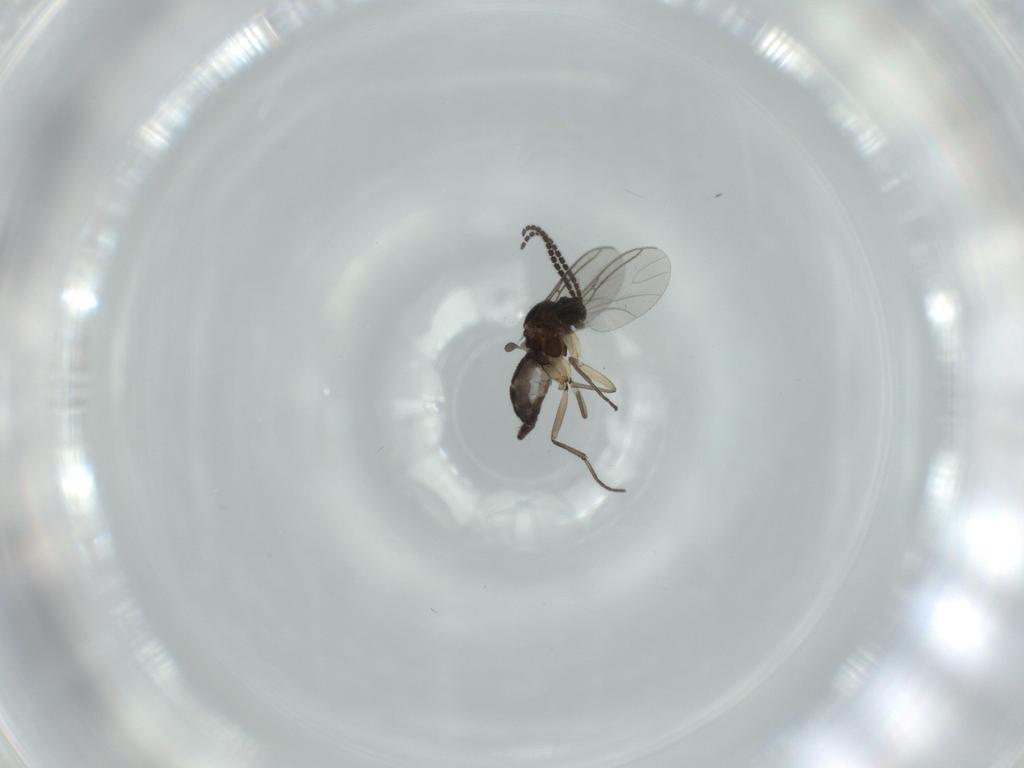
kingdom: Animalia
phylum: Arthropoda
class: Insecta
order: Diptera
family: Sciaridae
